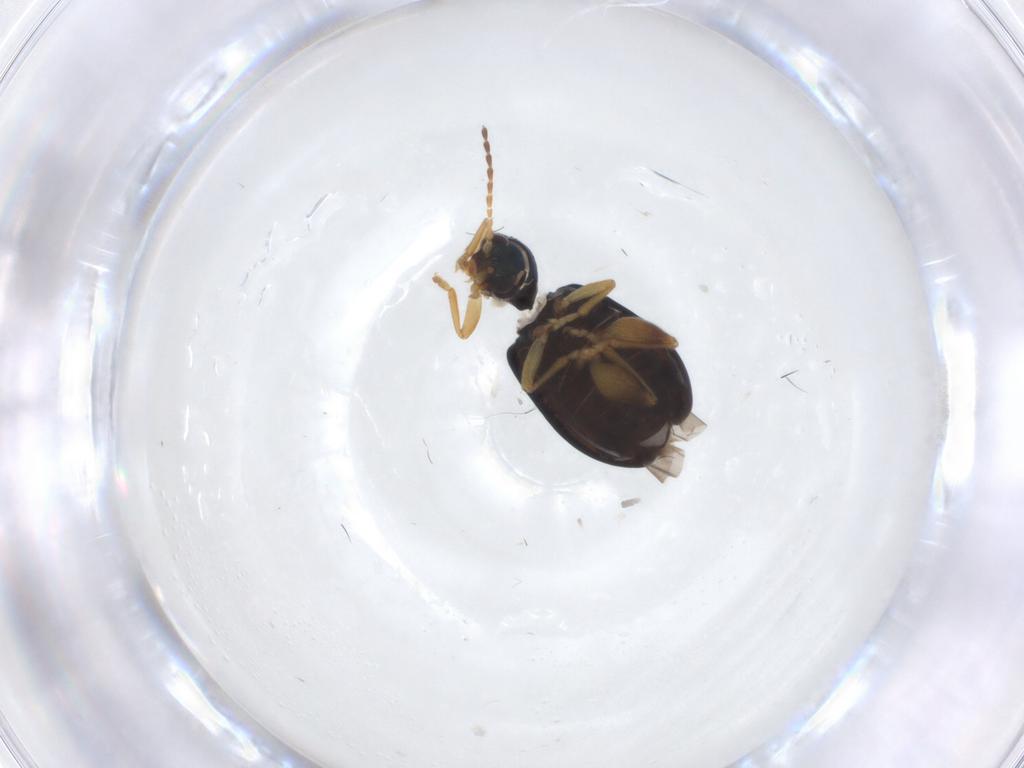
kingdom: Animalia
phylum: Arthropoda
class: Insecta
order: Coleoptera
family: Chrysomelidae
